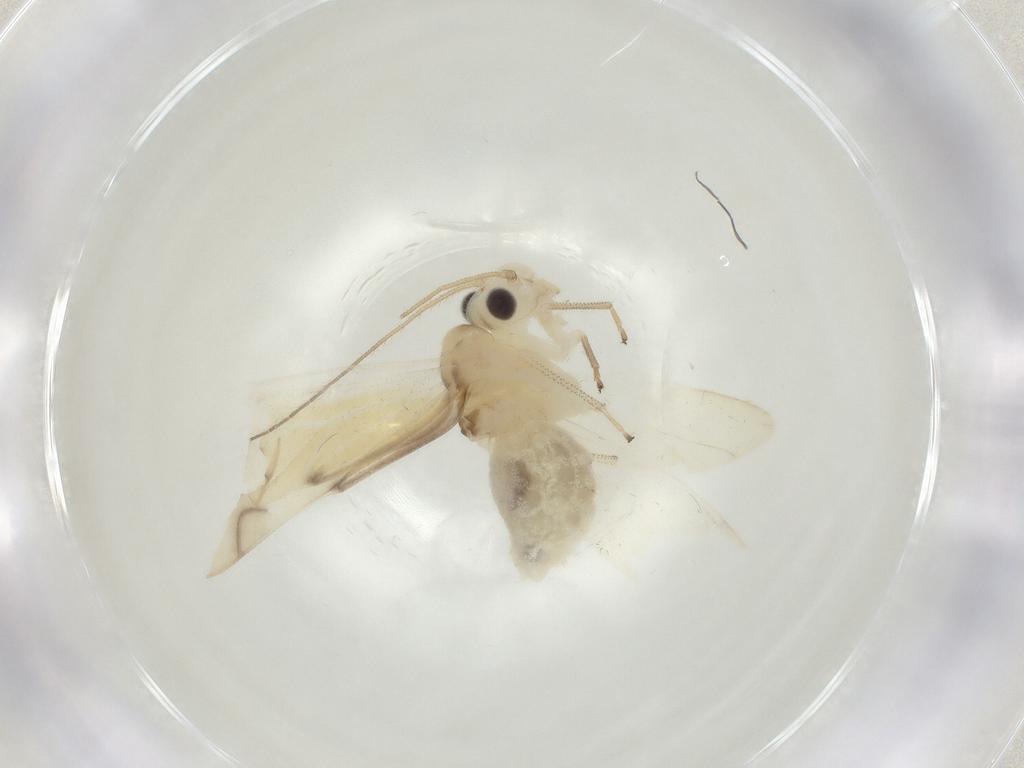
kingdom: Animalia
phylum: Arthropoda
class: Insecta
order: Psocodea
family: Caeciliusidae
